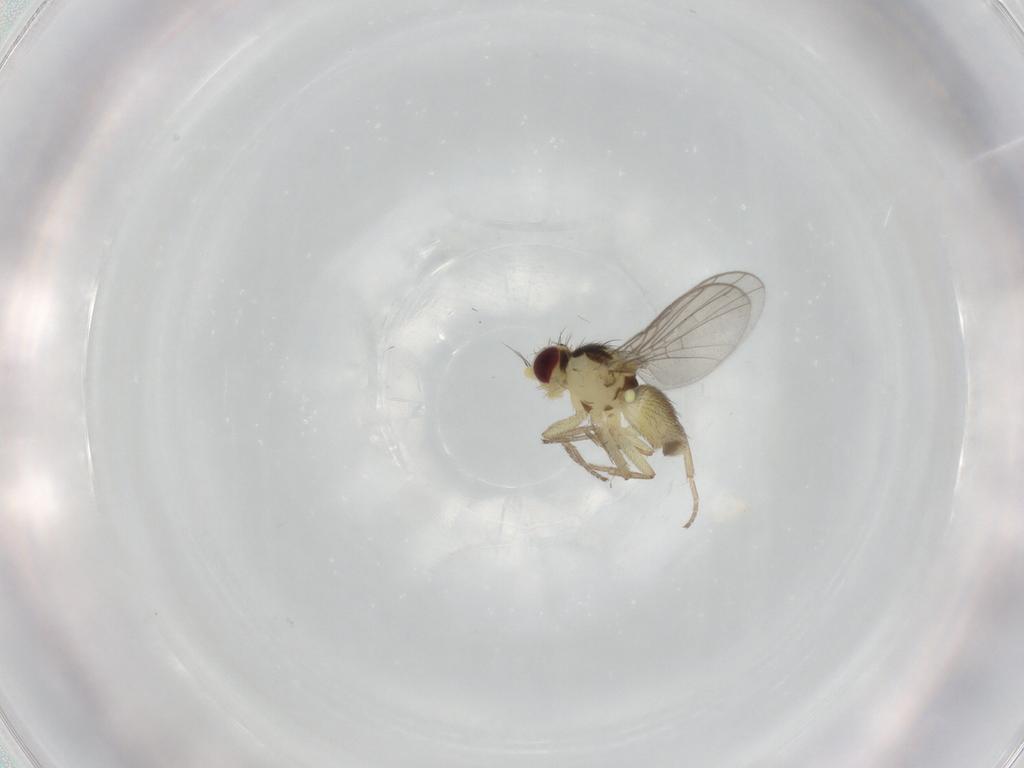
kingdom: Animalia
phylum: Arthropoda
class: Insecta
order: Diptera
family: Agromyzidae
